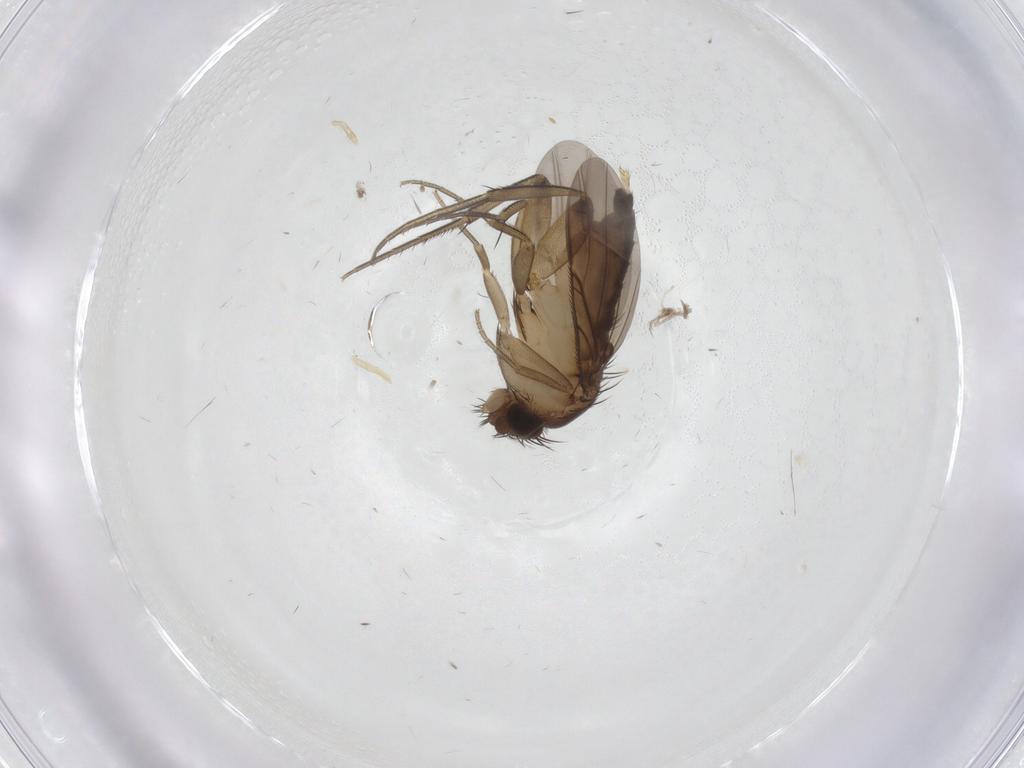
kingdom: Animalia
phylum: Arthropoda
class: Insecta
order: Diptera
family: Phoridae
